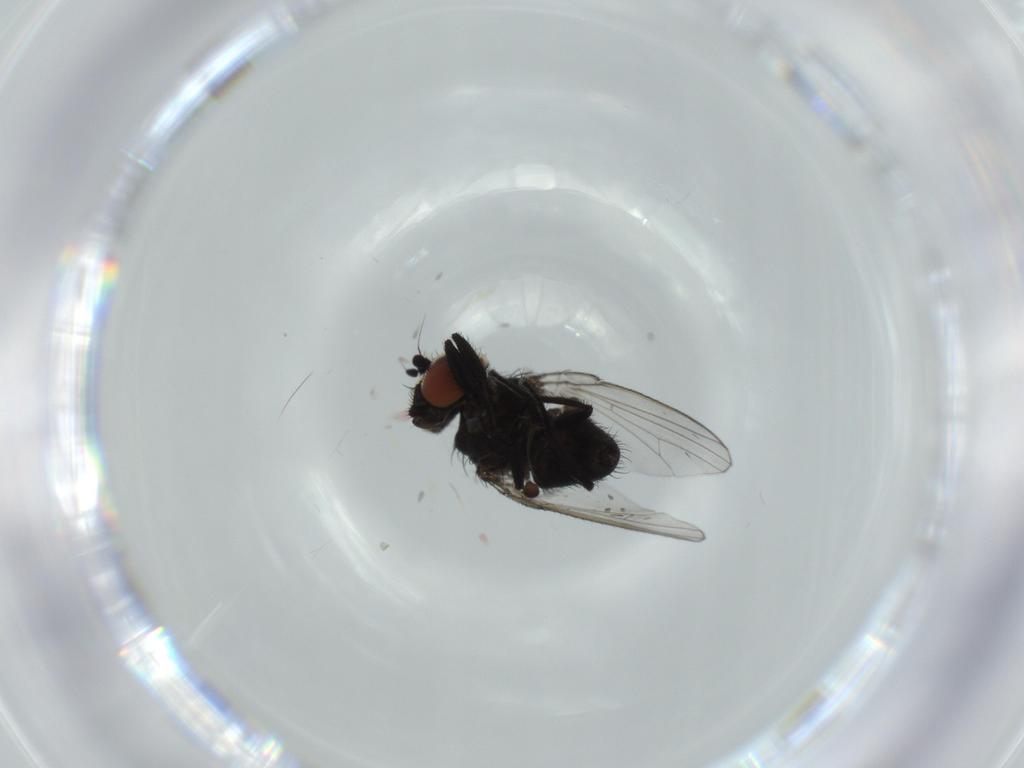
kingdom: Animalia
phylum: Arthropoda
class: Insecta
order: Diptera
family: Milichiidae
